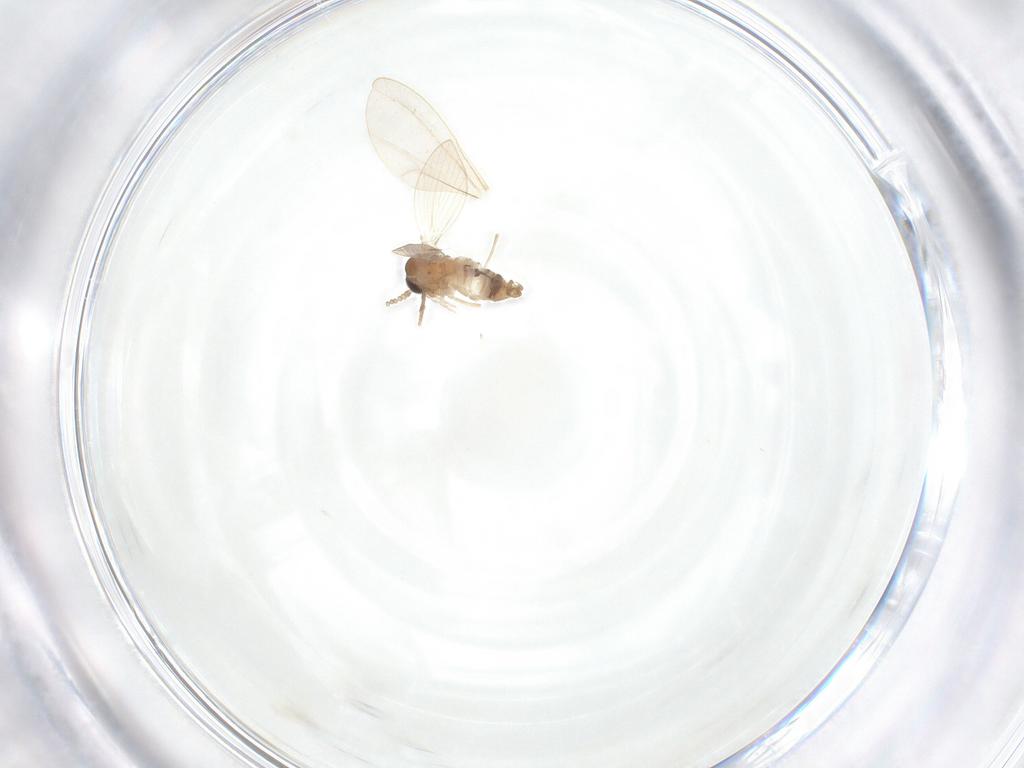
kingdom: Animalia
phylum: Arthropoda
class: Insecta
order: Diptera
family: Psychodidae
